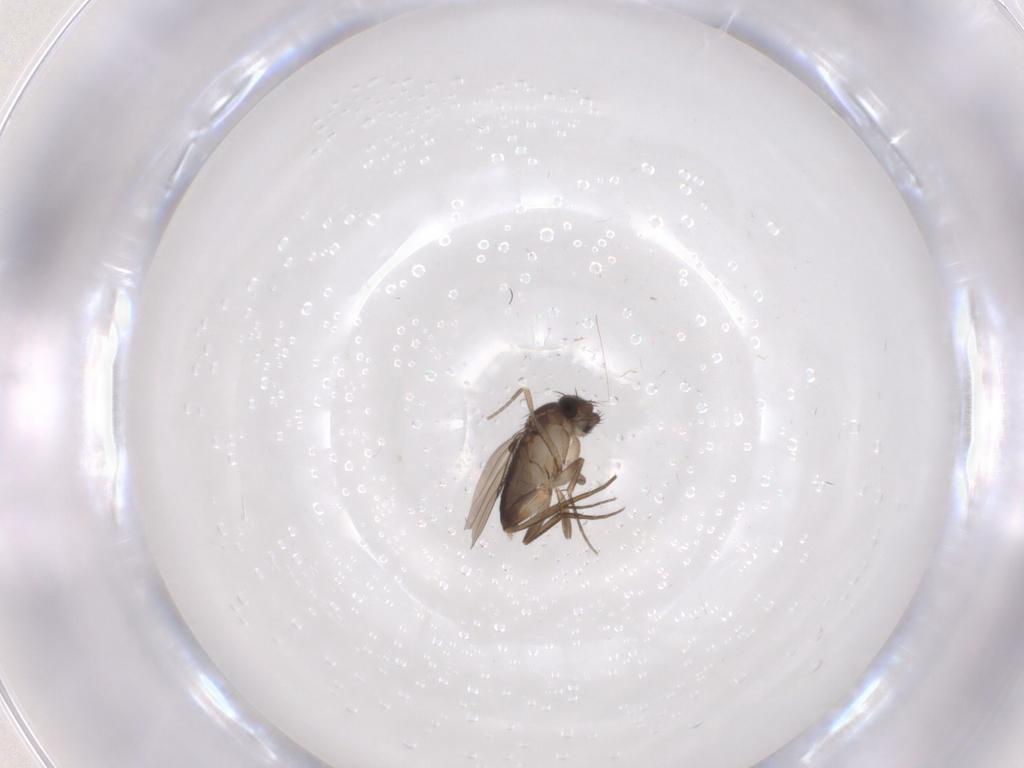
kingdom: Animalia
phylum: Arthropoda
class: Insecta
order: Diptera
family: Phoridae
